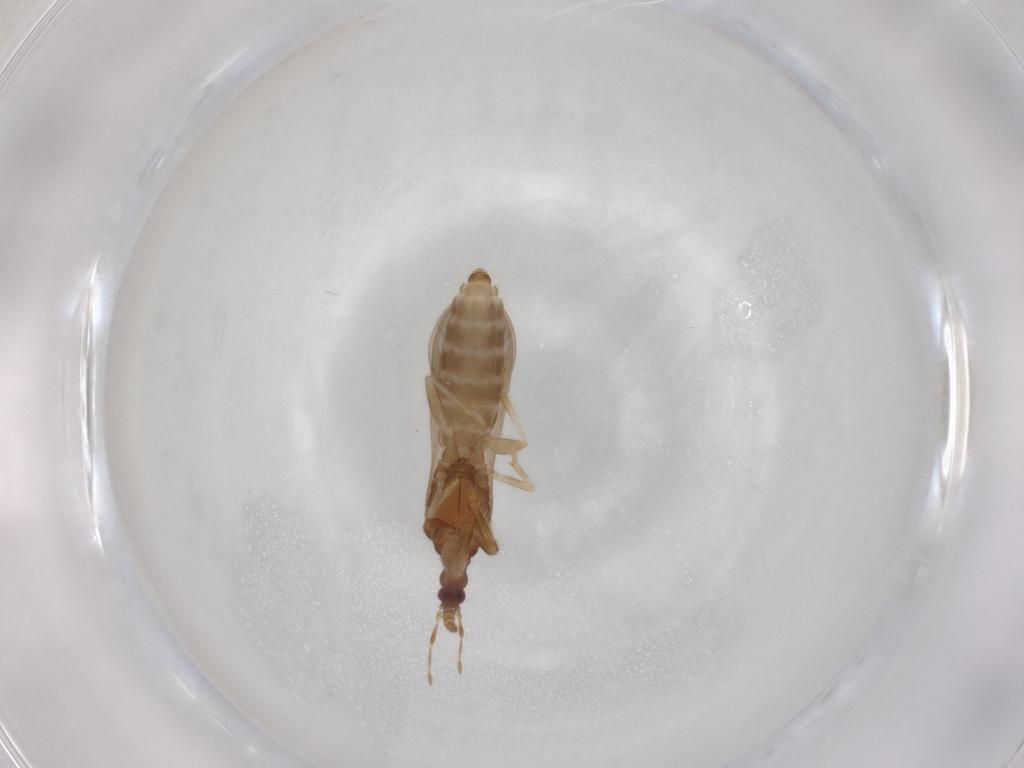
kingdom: Animalia
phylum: Arthropoda
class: Insecta
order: Hemiptera
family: Enicocephalidae
